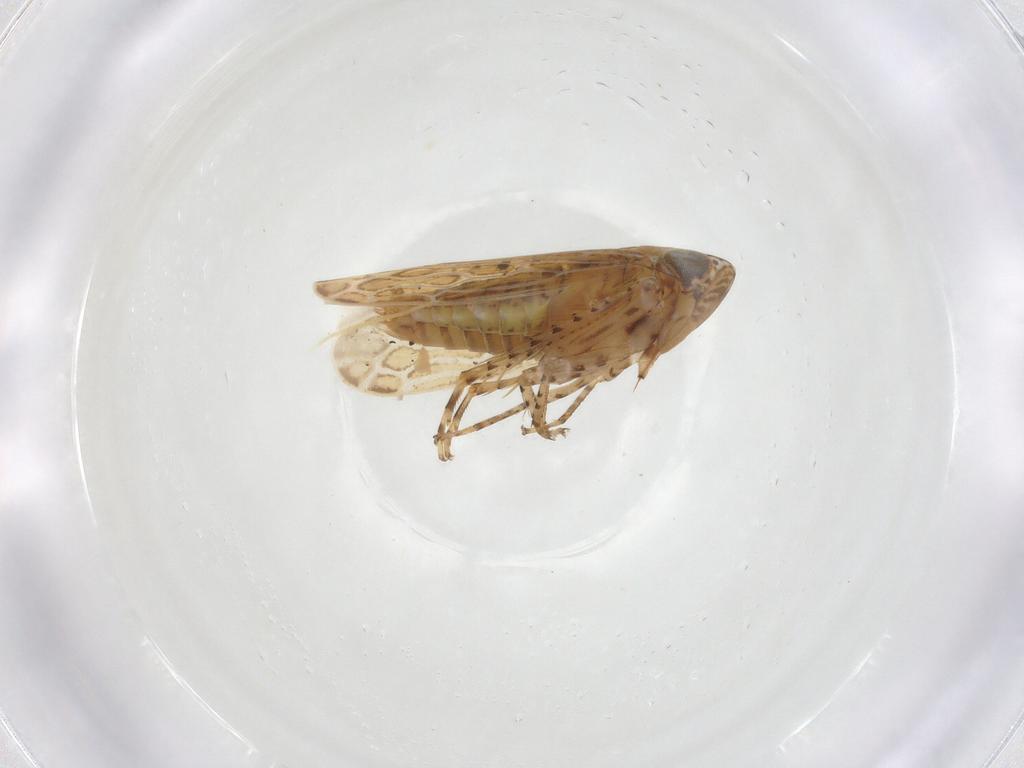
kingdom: Animalia
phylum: Arthropoda
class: Insecta
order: Hemiptera
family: Cicadellidae
